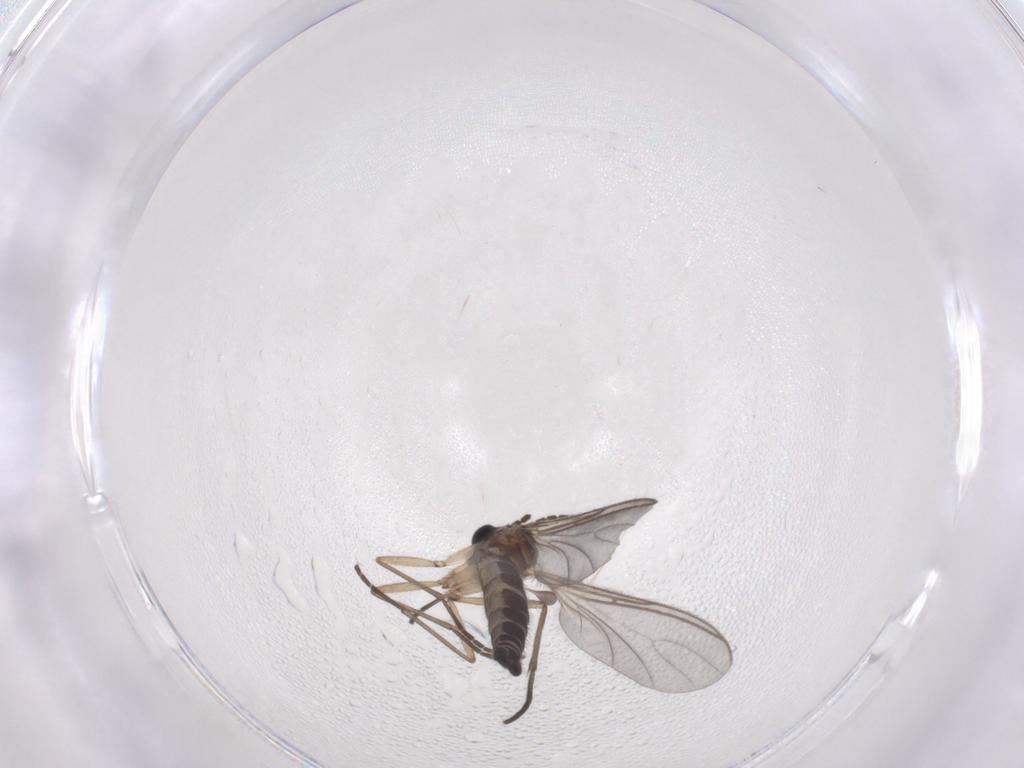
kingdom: Animalia
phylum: Arthropoda
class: Insecta
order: Diptera
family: Sciaridae
